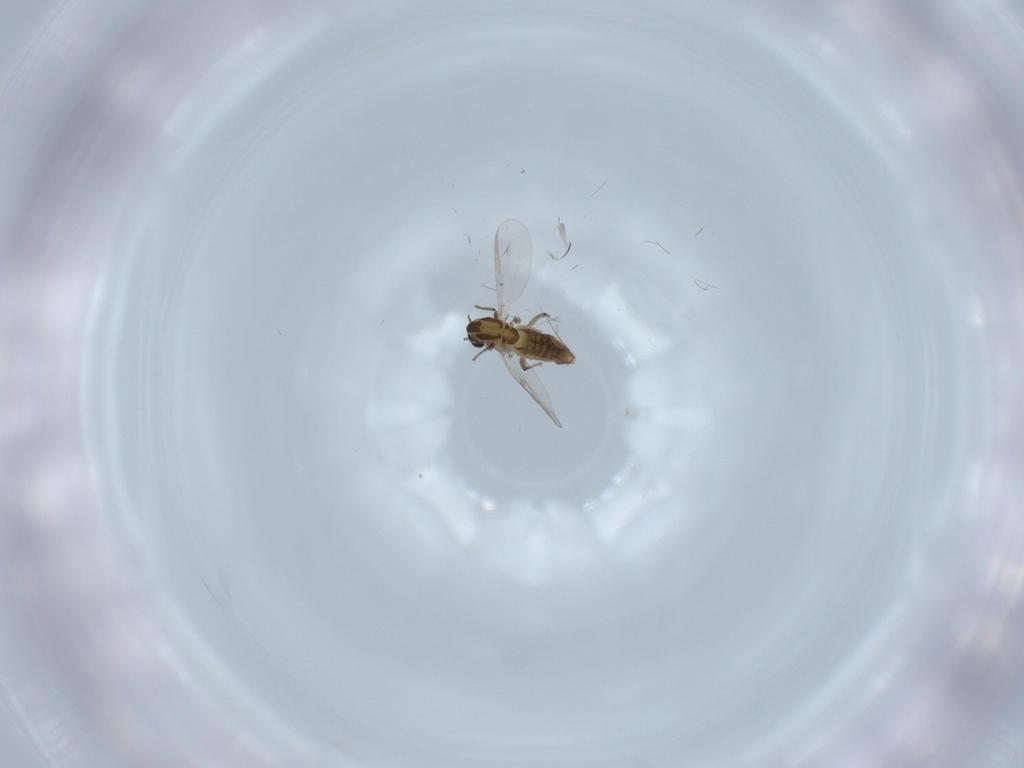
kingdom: Animalia
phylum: Arthropoda
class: Insecta
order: Diptera
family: Chironomidae
